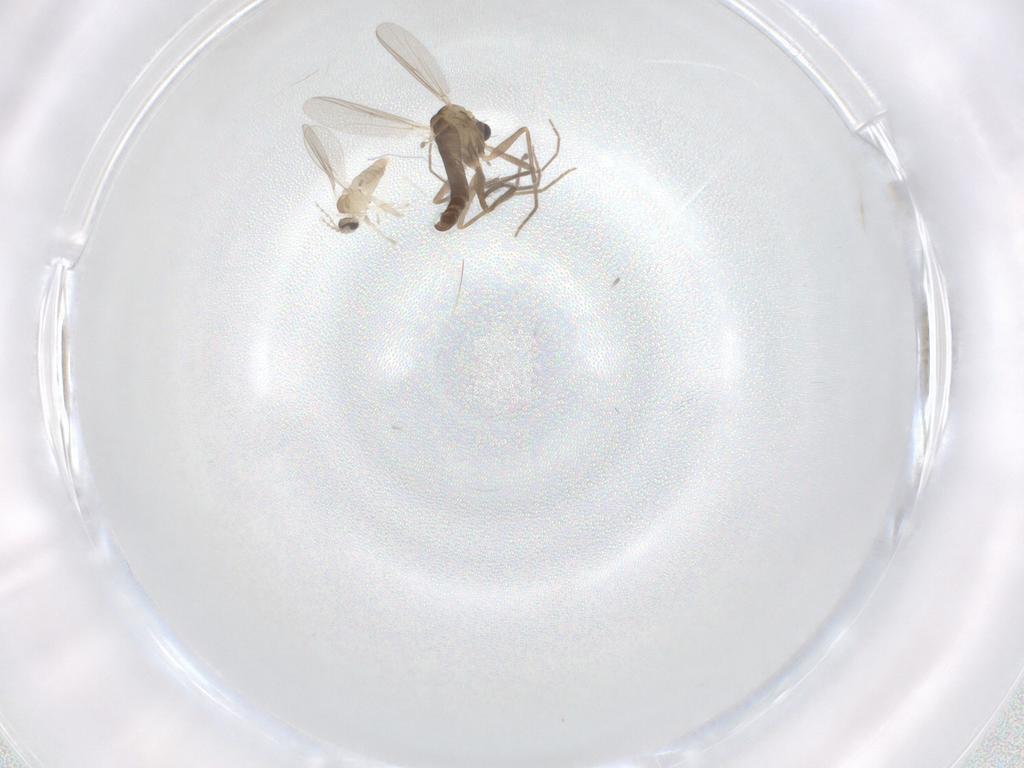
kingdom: Animalia
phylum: Arthropoda
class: Insecta
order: Diptera
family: Chironomidae
